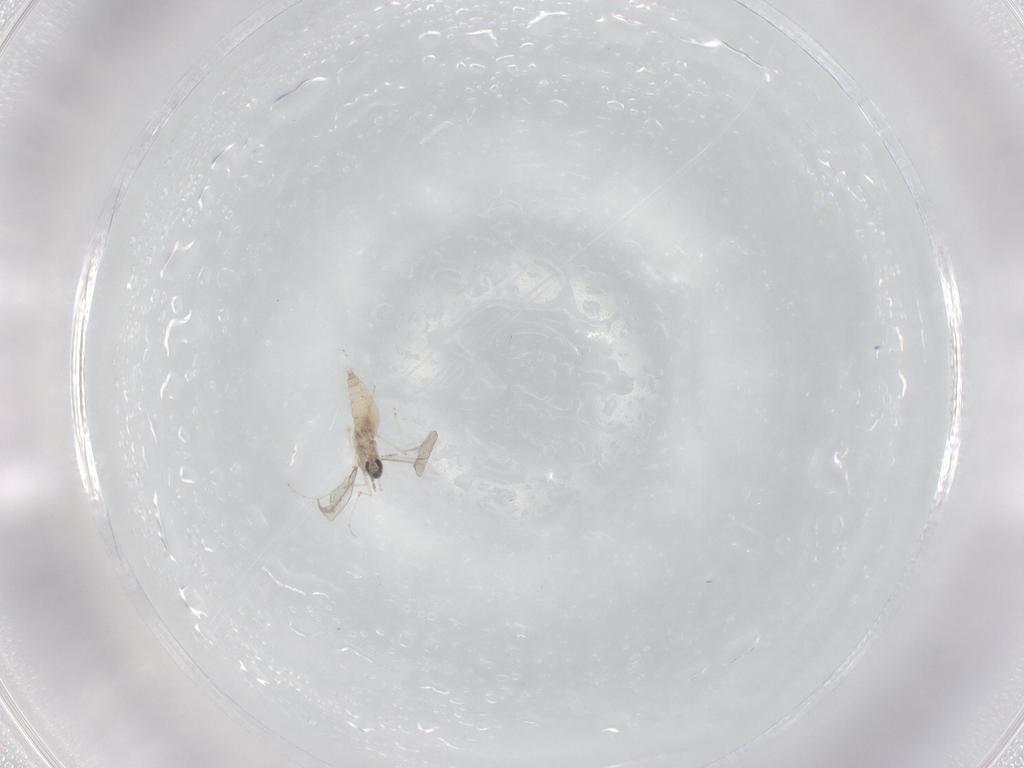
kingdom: Animalia
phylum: Arthropoda
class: Insecta
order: Diptera
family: Cecidomyiidae
